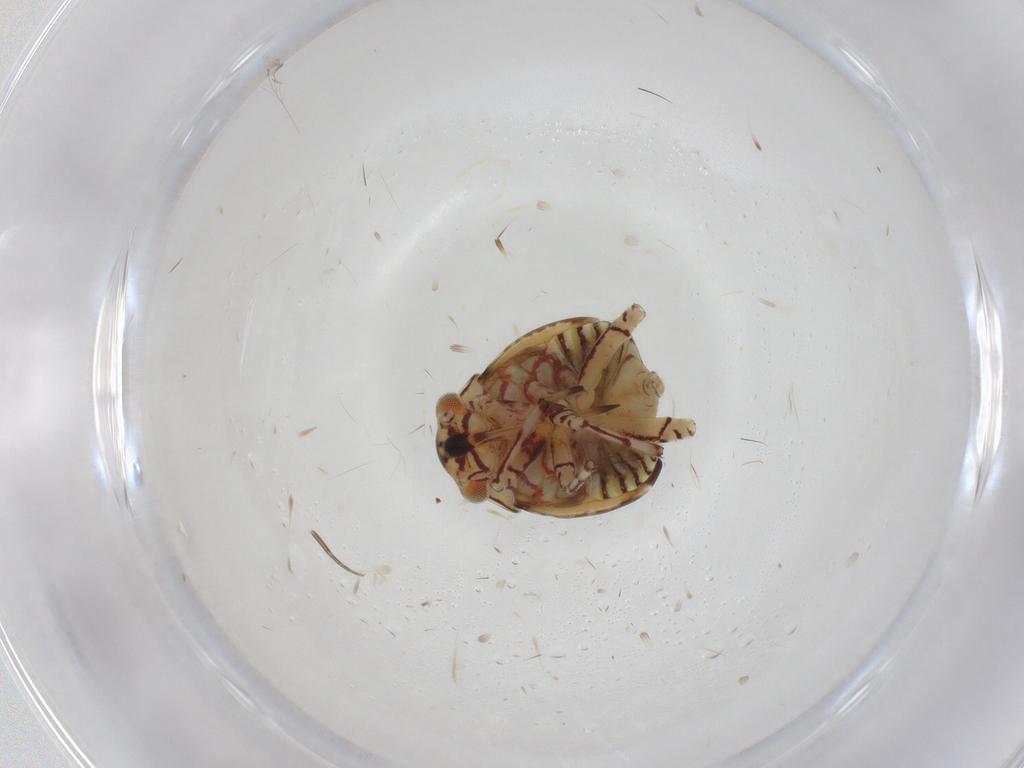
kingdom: Animalia
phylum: Arthropoda
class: Insecta
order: Hemiptera
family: Miridae
